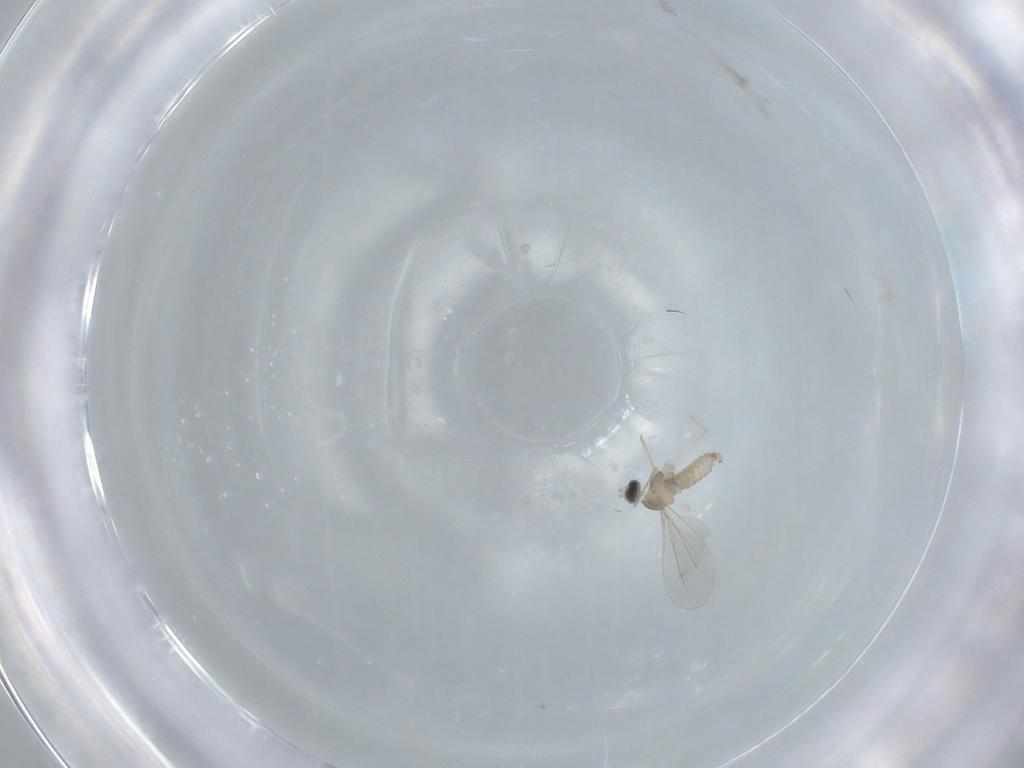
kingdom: Animalia
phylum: Arthropoda
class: Insecta
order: Diptera
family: Cecidomyiidae
